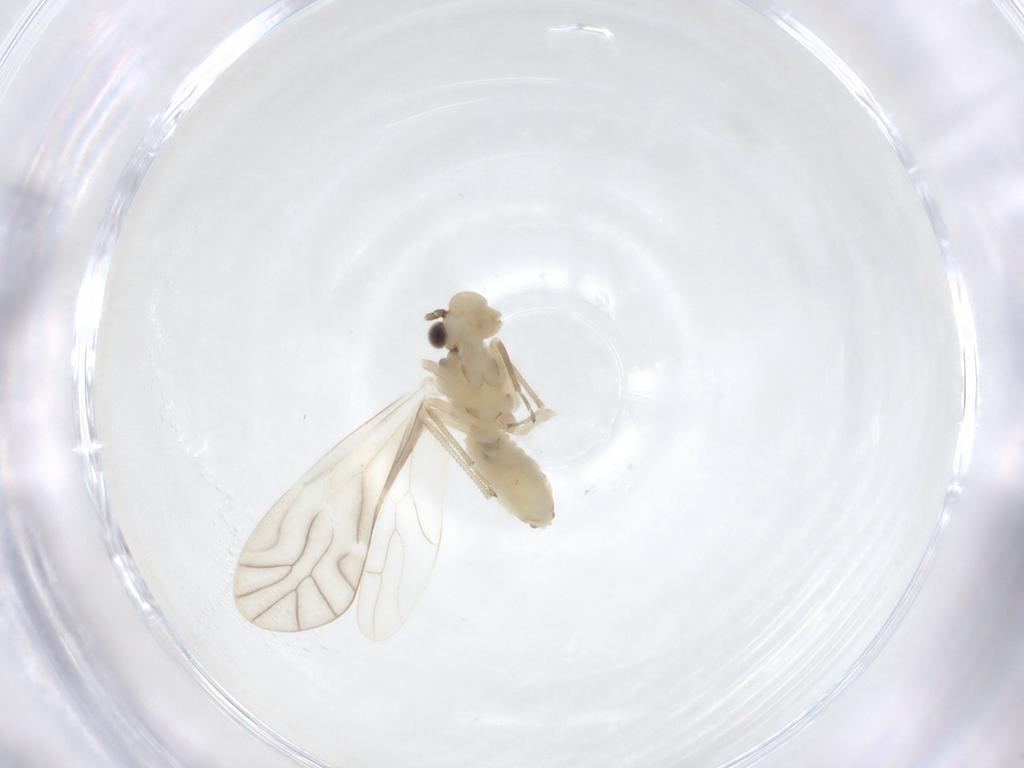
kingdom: Animalia
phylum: Arthropoda
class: Insecta
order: Psocodea
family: Caeciliusidae
